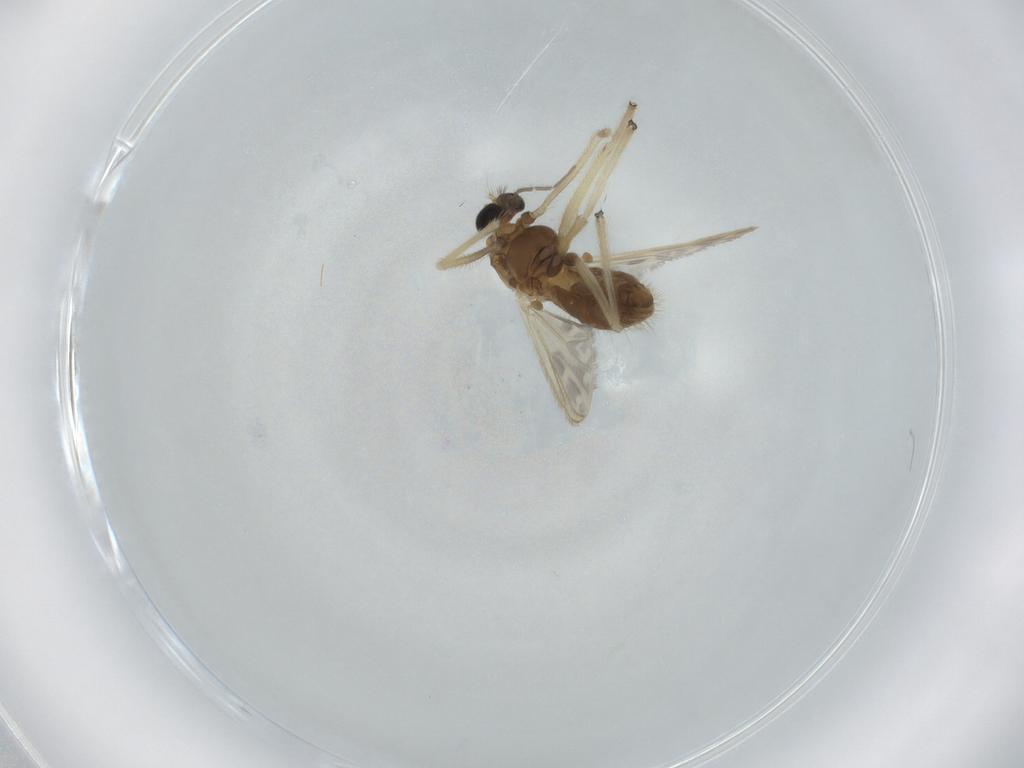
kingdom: Animalia
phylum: Arthropoda
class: Insecta
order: Diptera
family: Chironomidae
